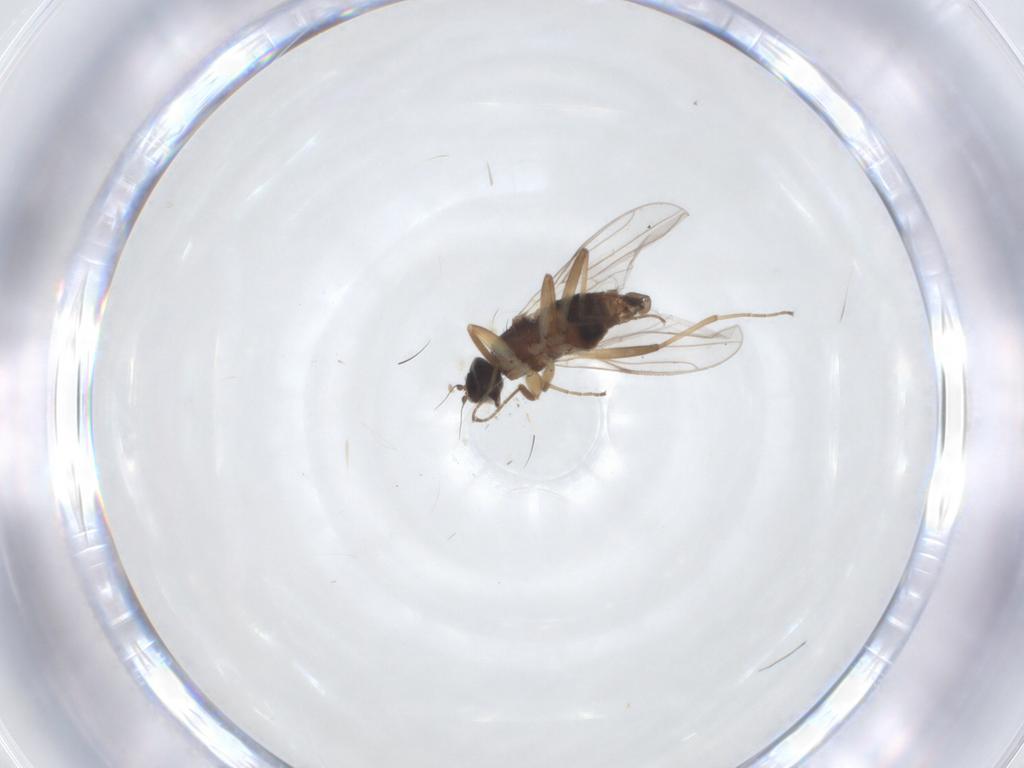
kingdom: Animalia
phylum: Arthropoda
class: Insecta
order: Diptera
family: Hybotidae
